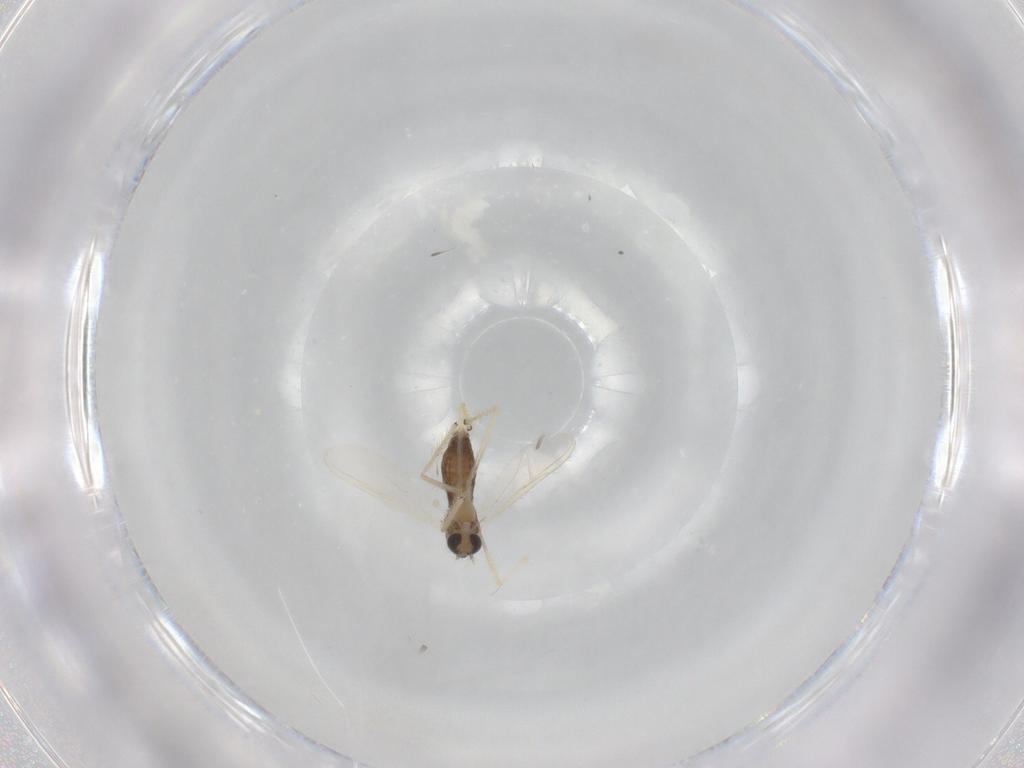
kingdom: Animalia
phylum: Arthropoda
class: Insecta
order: Diptera
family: Chironomidae
